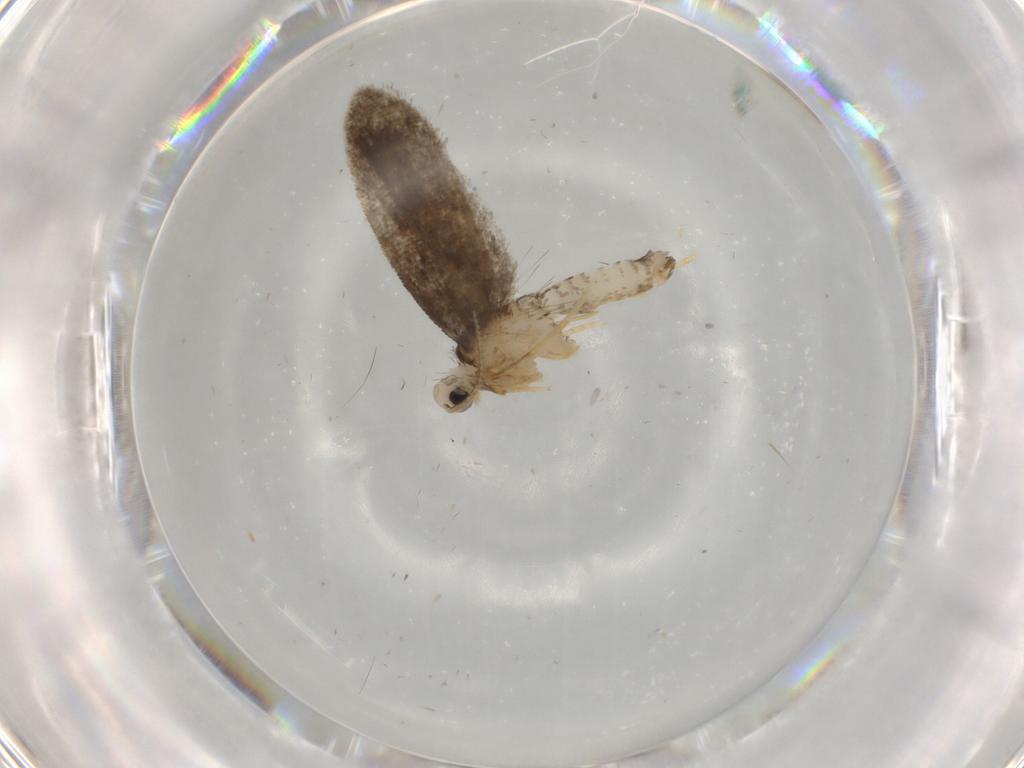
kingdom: Animalia
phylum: Arthropoda
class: Insecta
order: Lepidoptera
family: Psychidae
